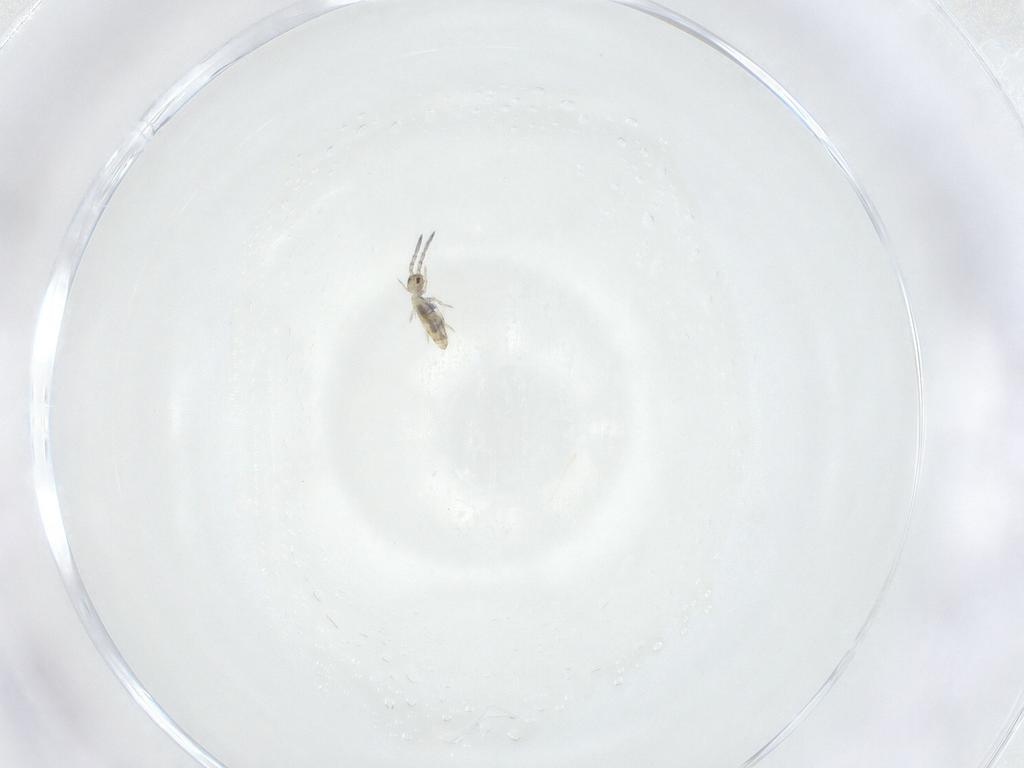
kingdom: Animalia
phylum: Arthropoda
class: Collembola
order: Entomobryomorpha
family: Entomobryidae
